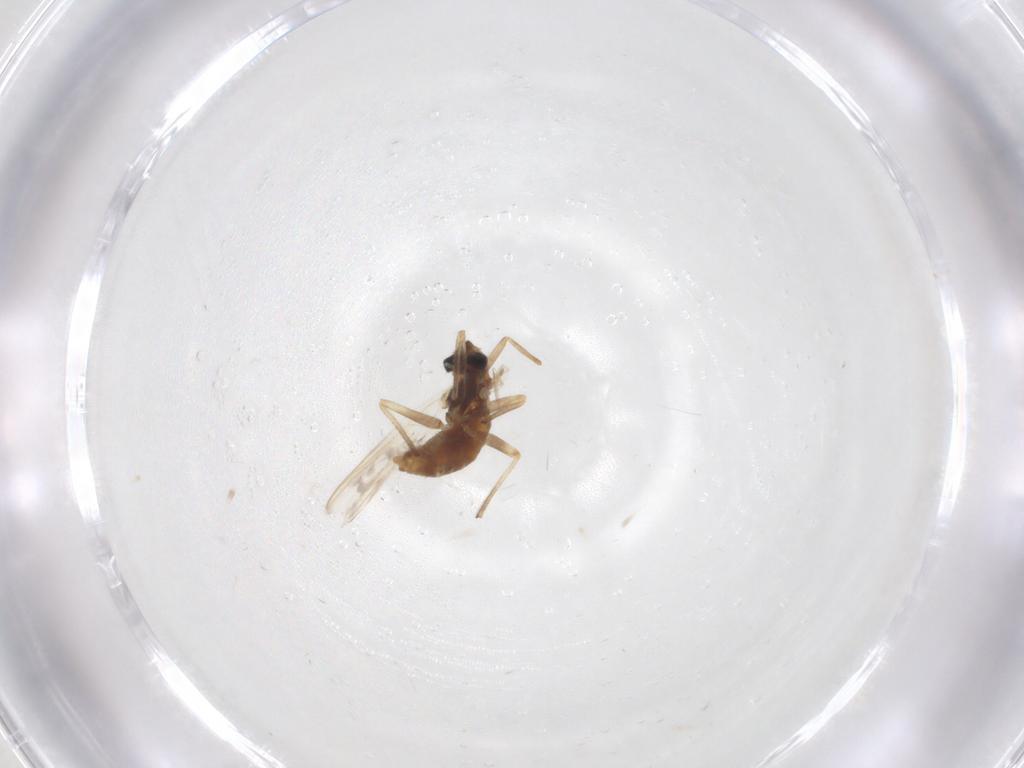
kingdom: Animalia
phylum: Arthropoda
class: Insecta
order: Diptera
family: Chironomidae
